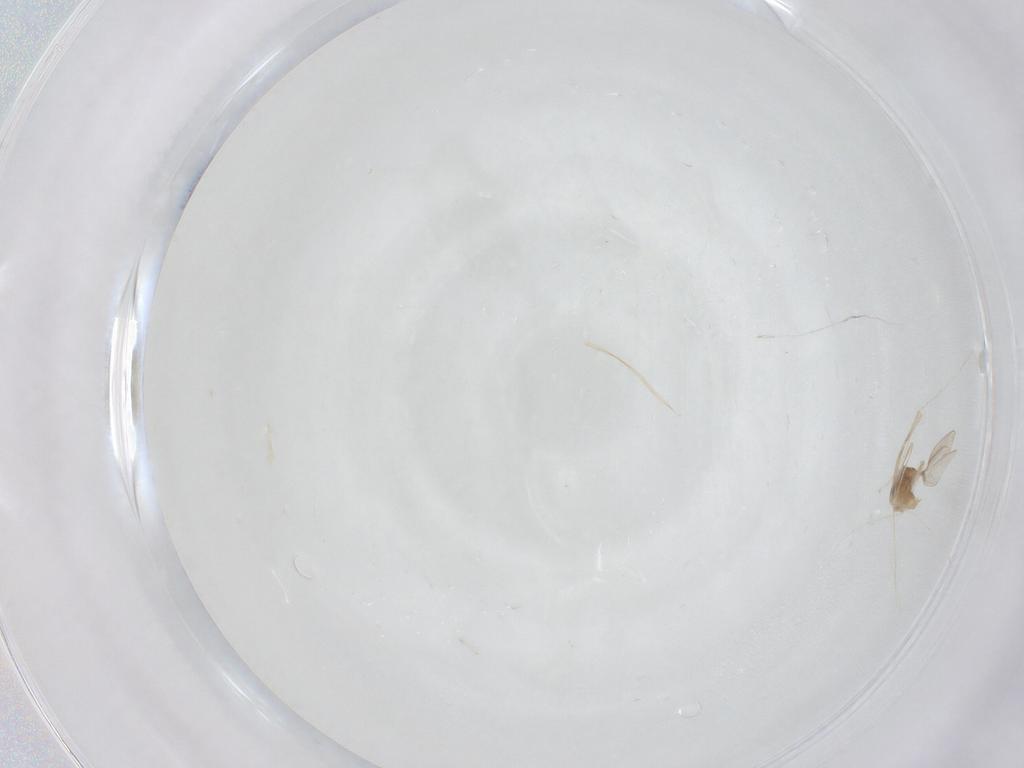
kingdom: Animalia
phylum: Arthropoda
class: Insecta
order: Diptera
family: Cecidomyiidae
